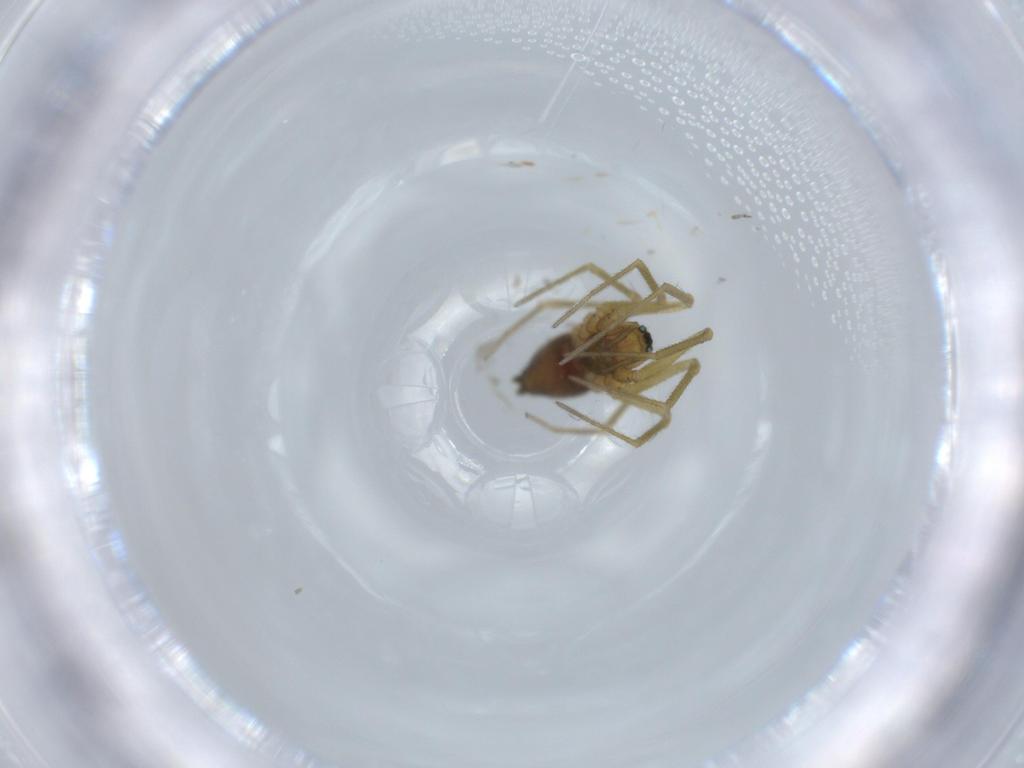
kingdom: Animalia
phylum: Arthropoda
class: Arachnida
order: Araneae
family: Linyphiidae
